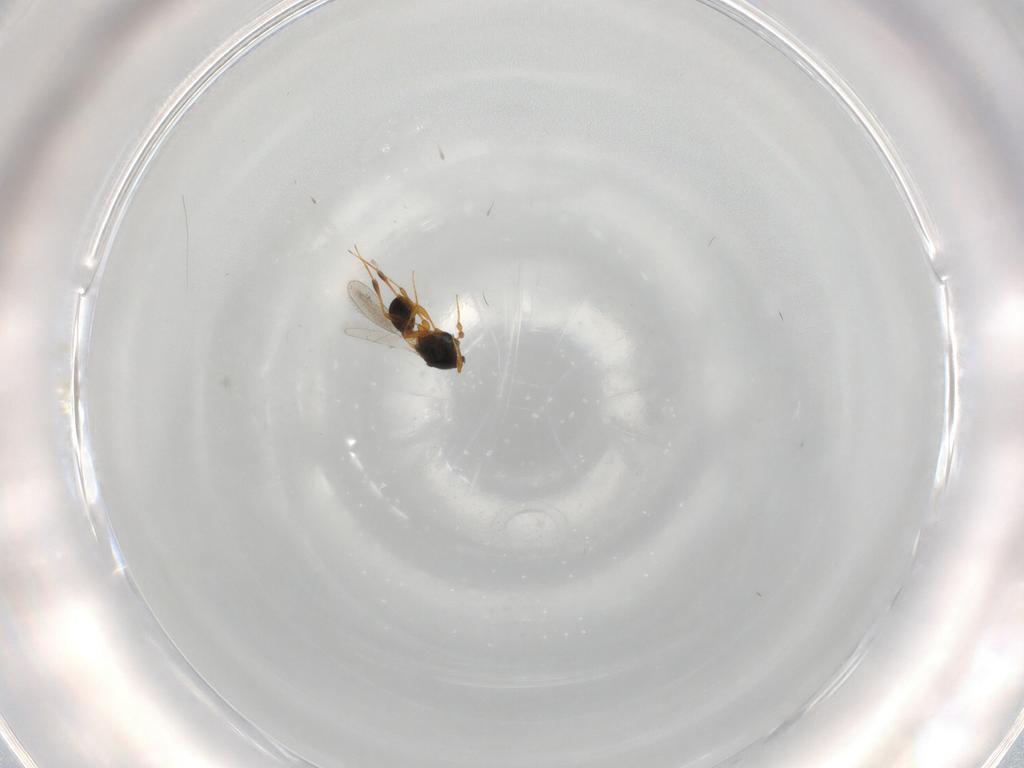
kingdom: Animalia
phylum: Arthropoda
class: Insecta
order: Hymenoptera
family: Platygastridae
